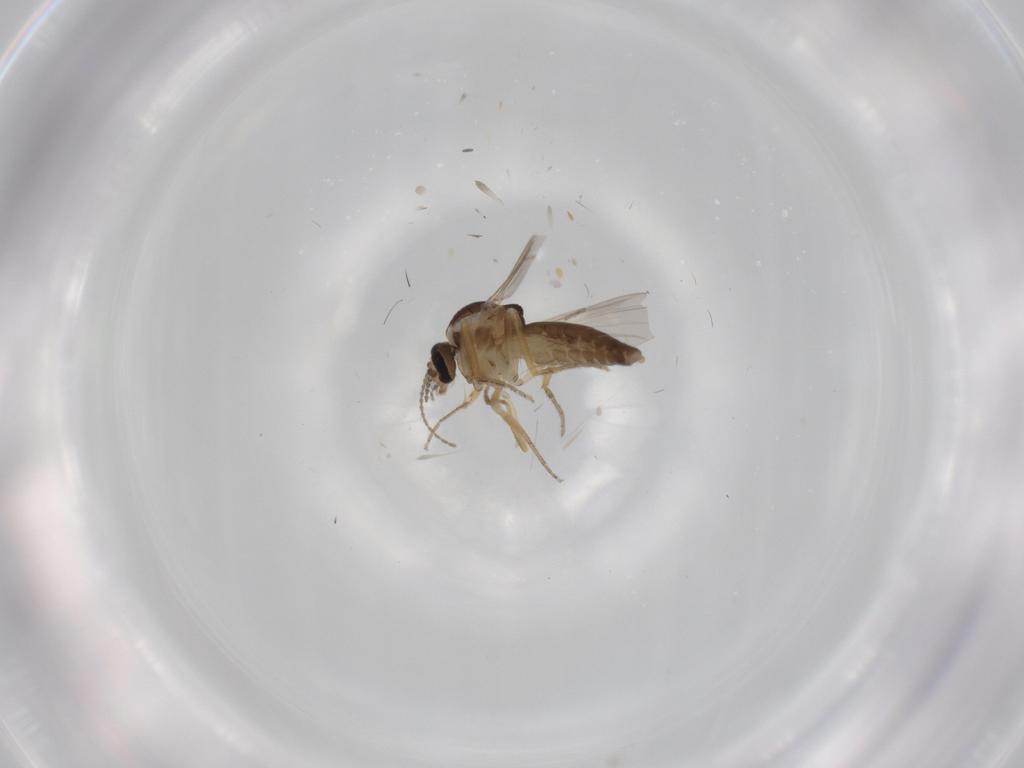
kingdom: Animalia
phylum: Arthropoda
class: Insecta
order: Diptera
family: Ceratopogonidae
